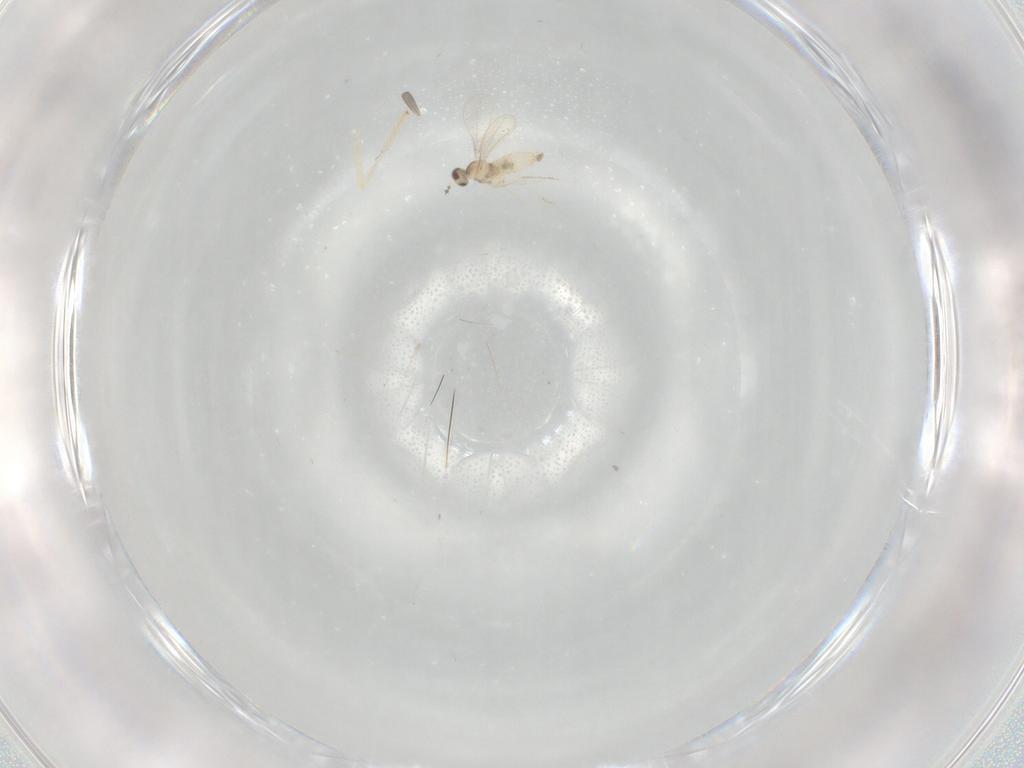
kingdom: Animalia
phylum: Arthropoda
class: Insecta
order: Diptera
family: Cecidomyiidae
